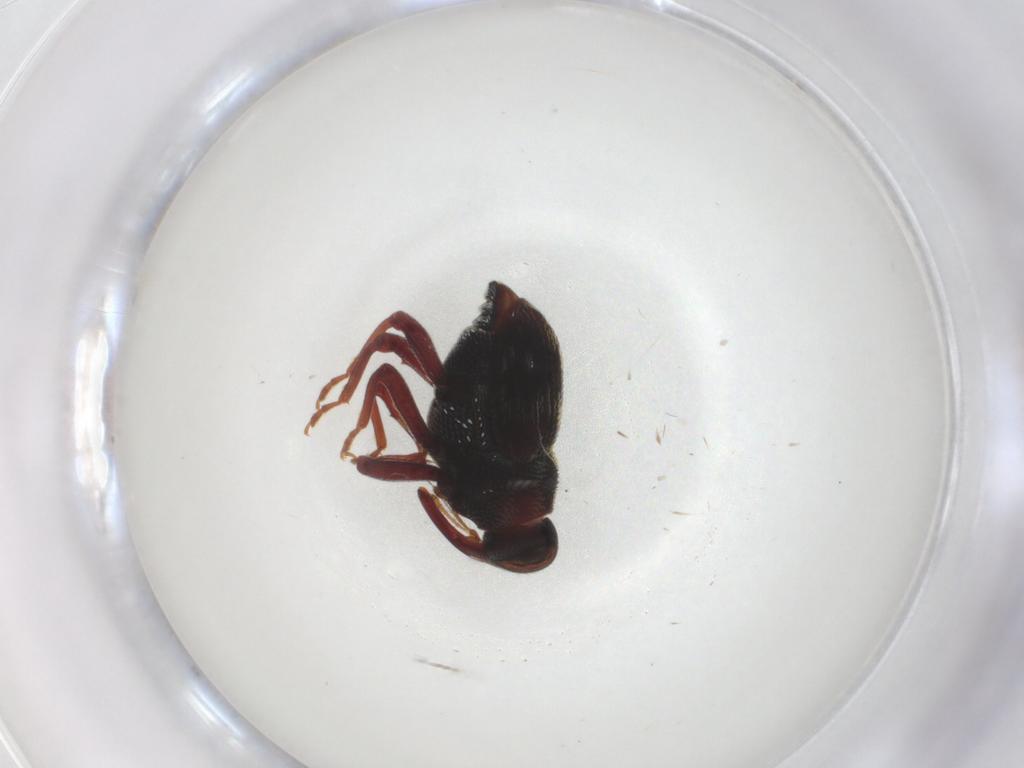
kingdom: Animalia
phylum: Arthropoda
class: Insecta
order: Coleoptera
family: Curculionidae
